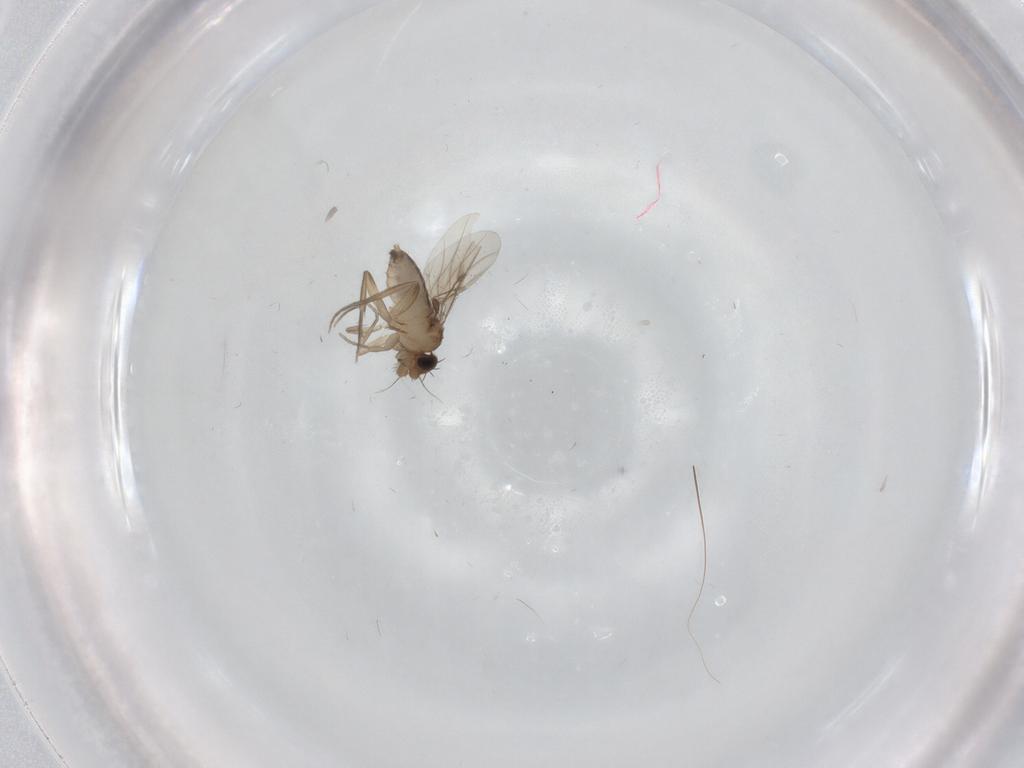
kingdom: Animalia
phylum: Arthropoda
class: Insecta
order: Diptera
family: Phoridae
